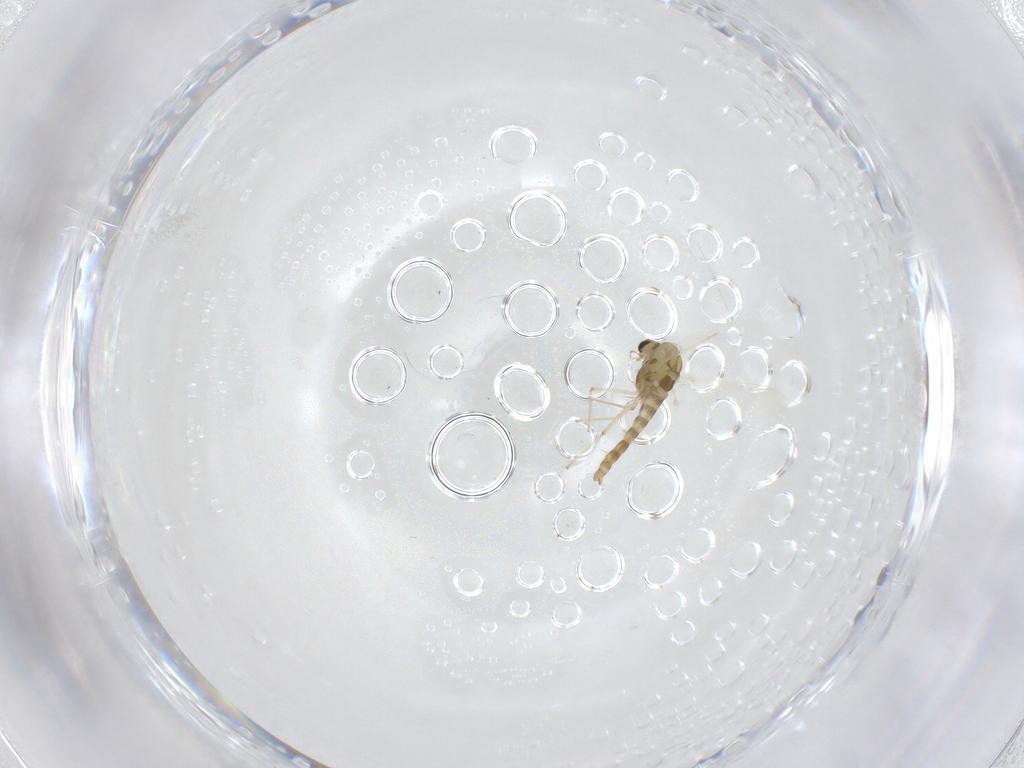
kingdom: Animalia
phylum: Arthropoda
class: Insecta
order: Diptera
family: Chironomidae
